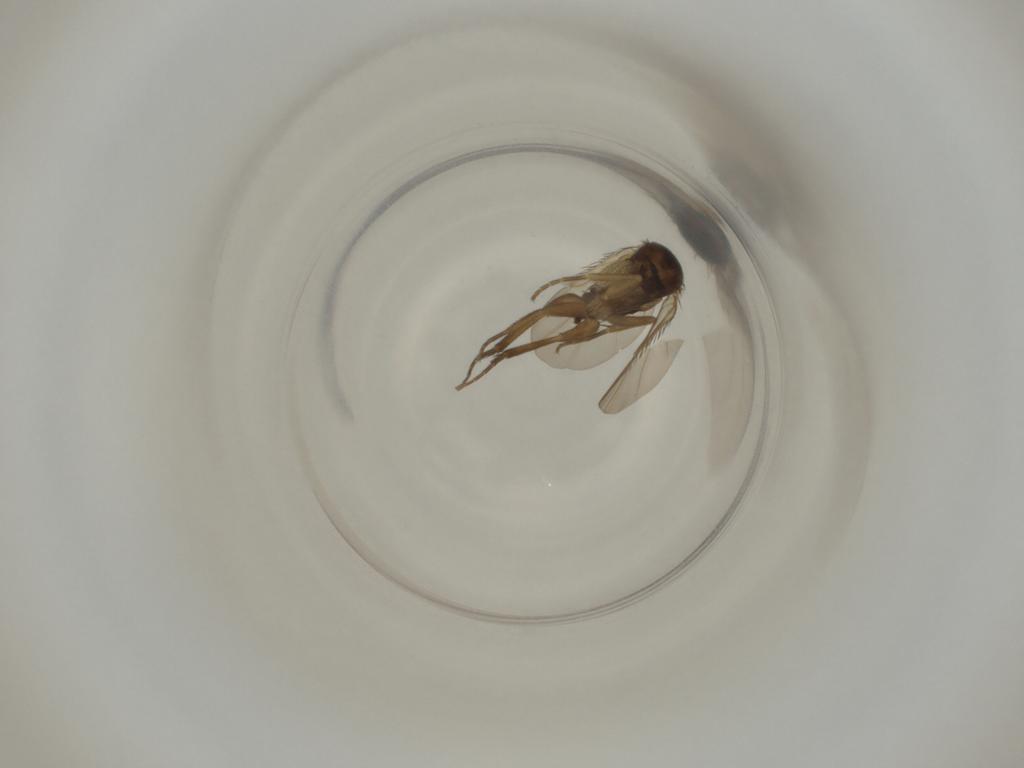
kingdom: Animalia
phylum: Arthropoda
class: Insecta
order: Diptera
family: Phoridae
